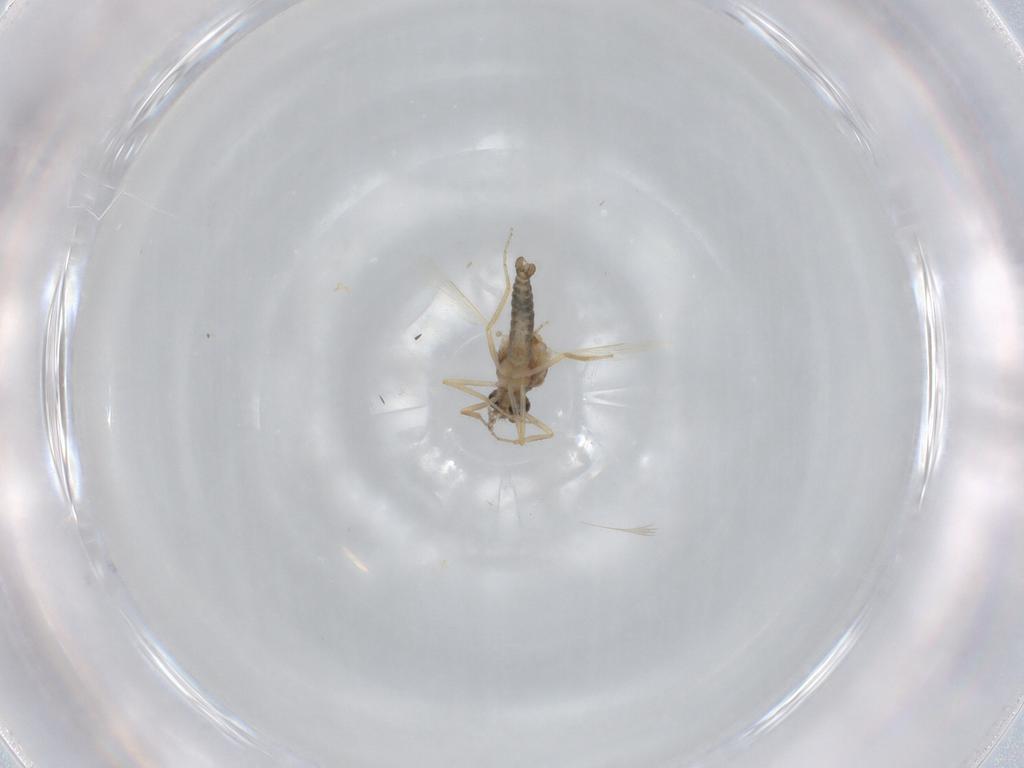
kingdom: Animalia
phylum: Arthropoda
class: Insecta
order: Diptera
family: Ceratopogonidae
